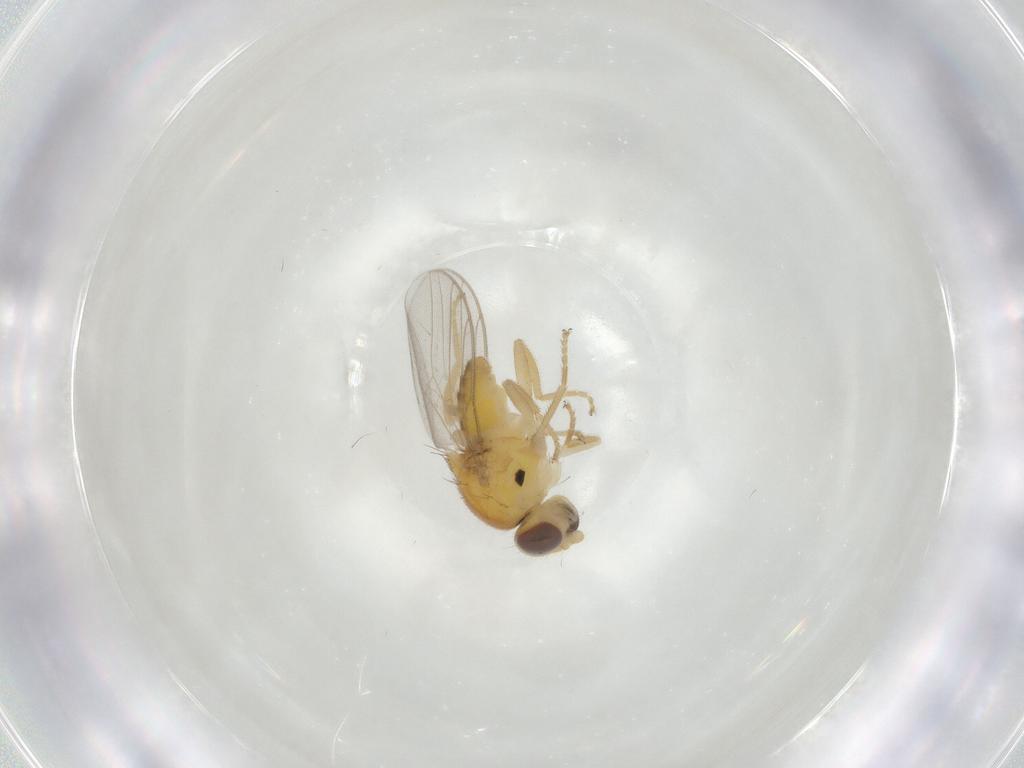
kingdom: Animalia
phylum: Arthropoda
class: Insecta
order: Diptera
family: Chloropidae
